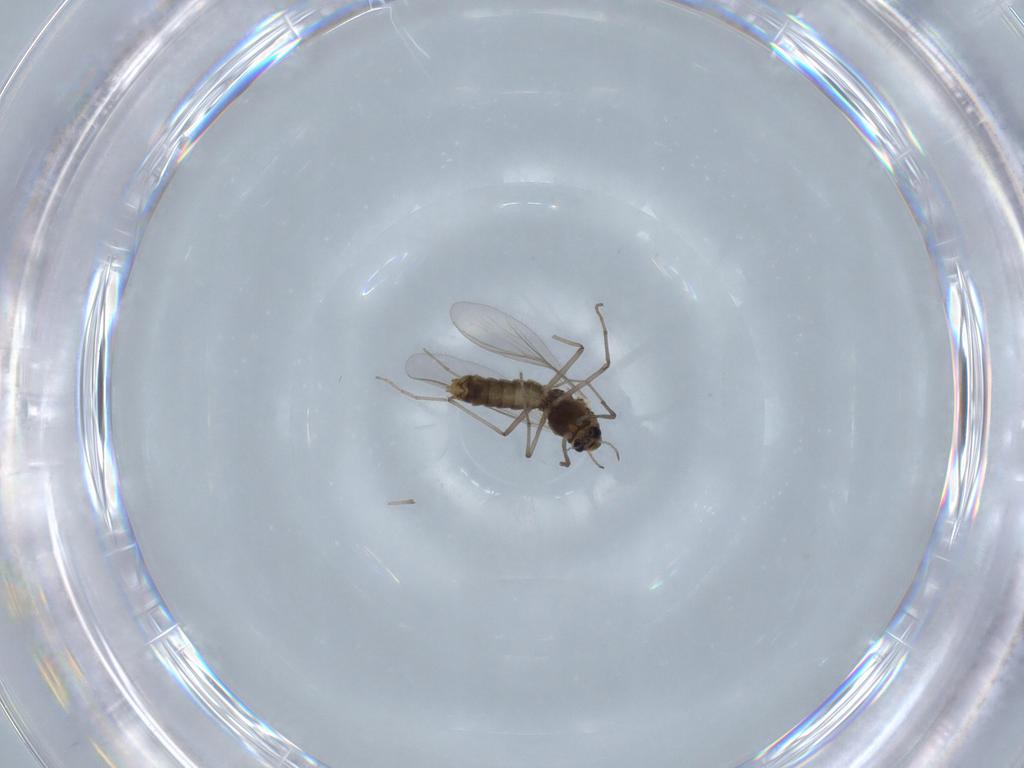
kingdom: Animalia
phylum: Arthropoda
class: Insecta
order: Diptera
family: Chironomidae
